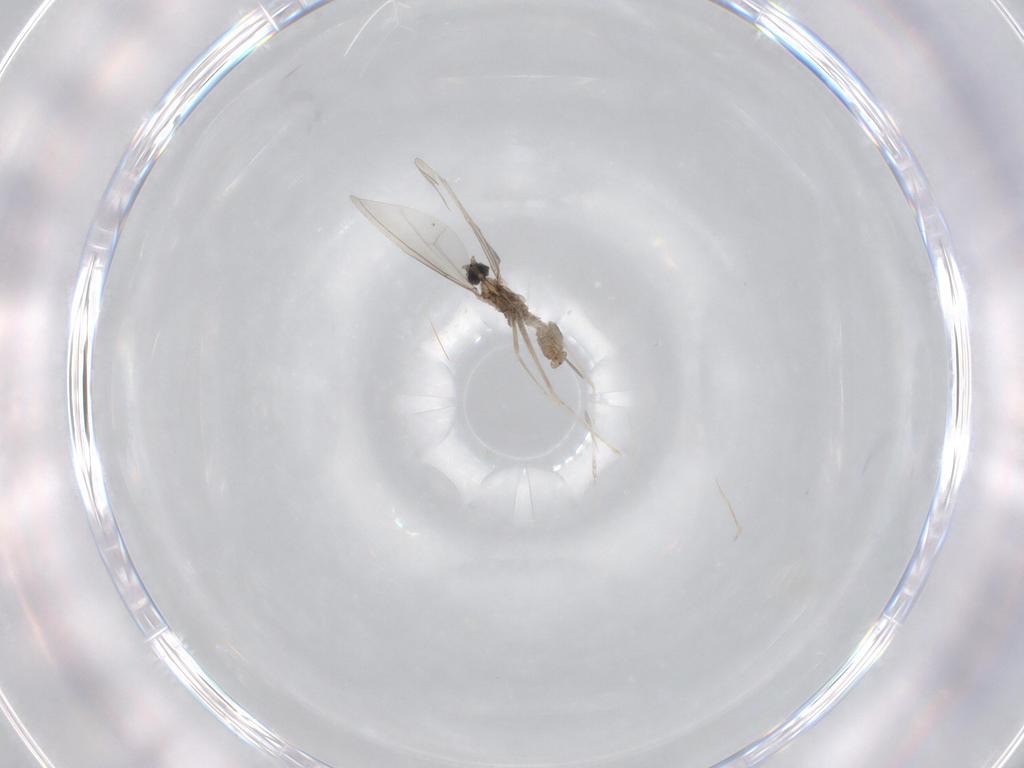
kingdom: Animalia
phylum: Arthropoda
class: Insecta
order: Diptera
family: Cecidomyiidae
